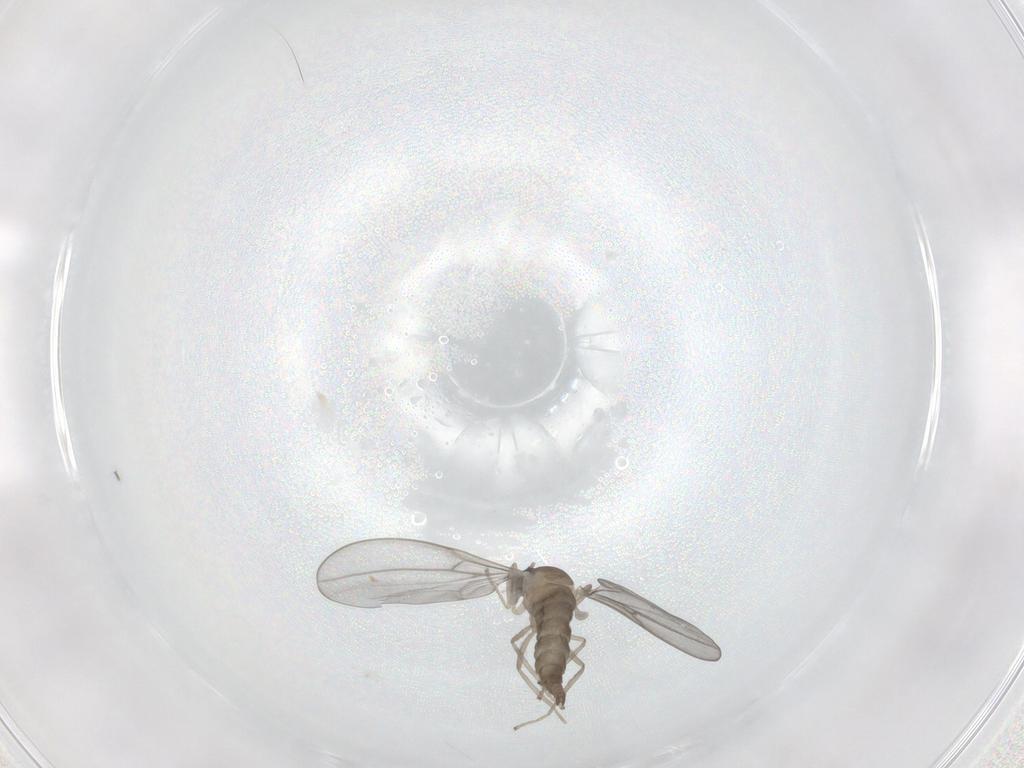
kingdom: Animalia
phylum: Arthropoda
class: Insecta
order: Diptera
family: Cecidomyiidae
